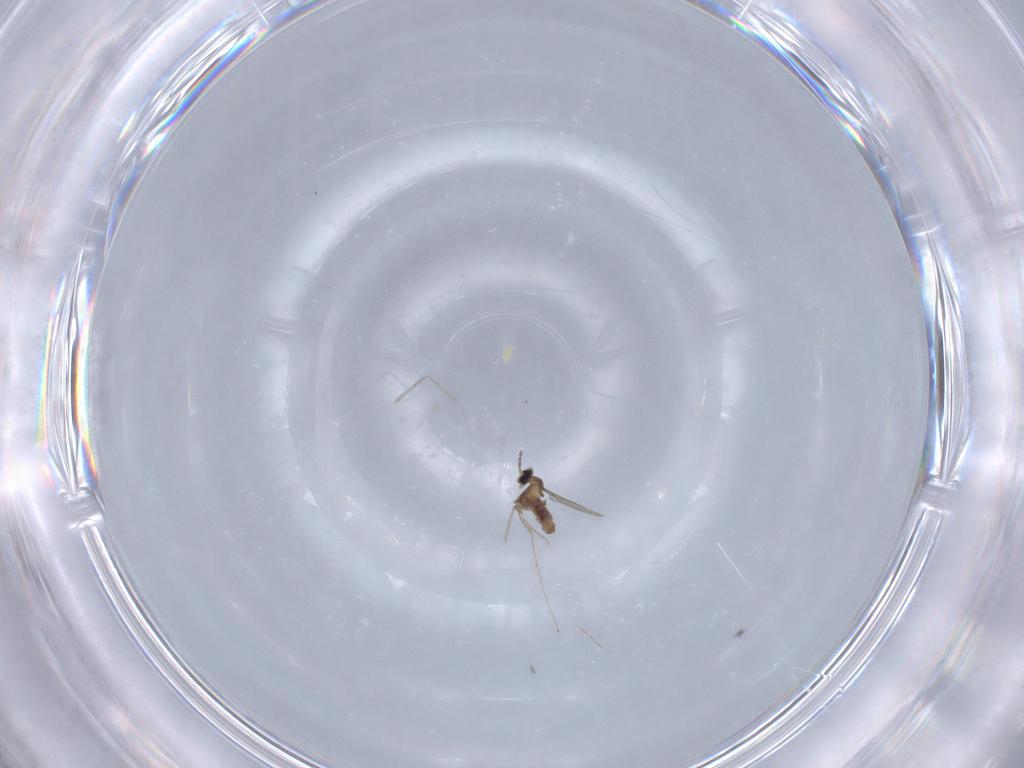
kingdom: Animalia
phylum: Arthropoda
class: Insecta
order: Diptera
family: Cecidomyiidae
